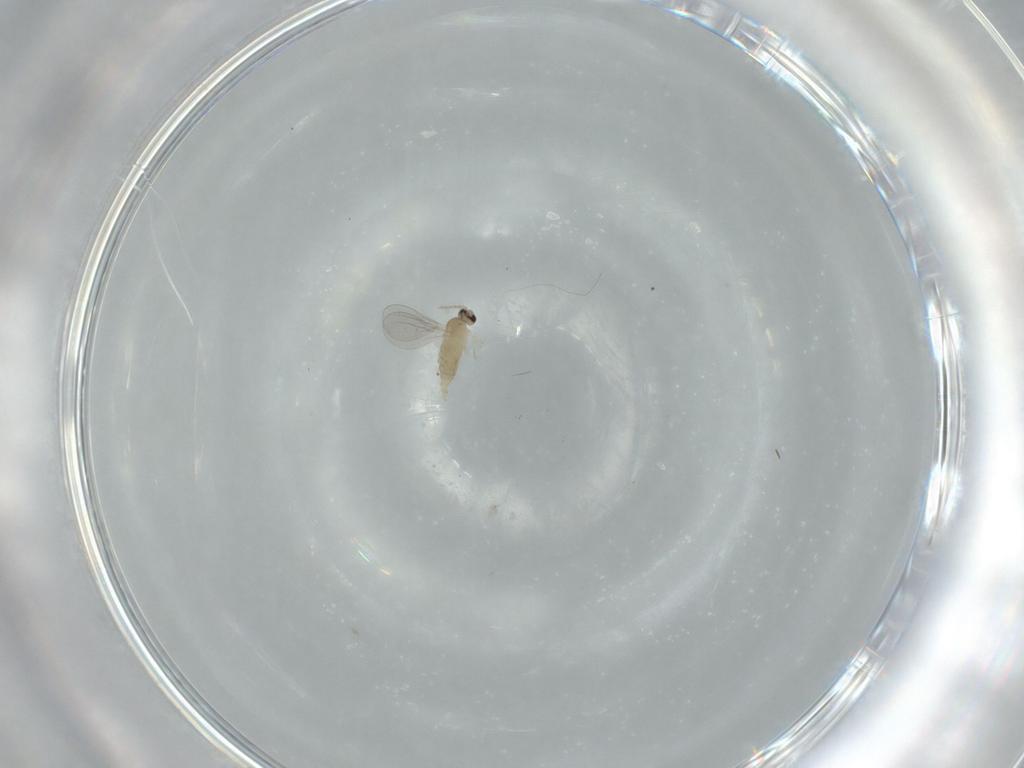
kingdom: Animalia
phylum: Arthropoda
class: Insecta
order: Diptera
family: Cecidomyiidae
